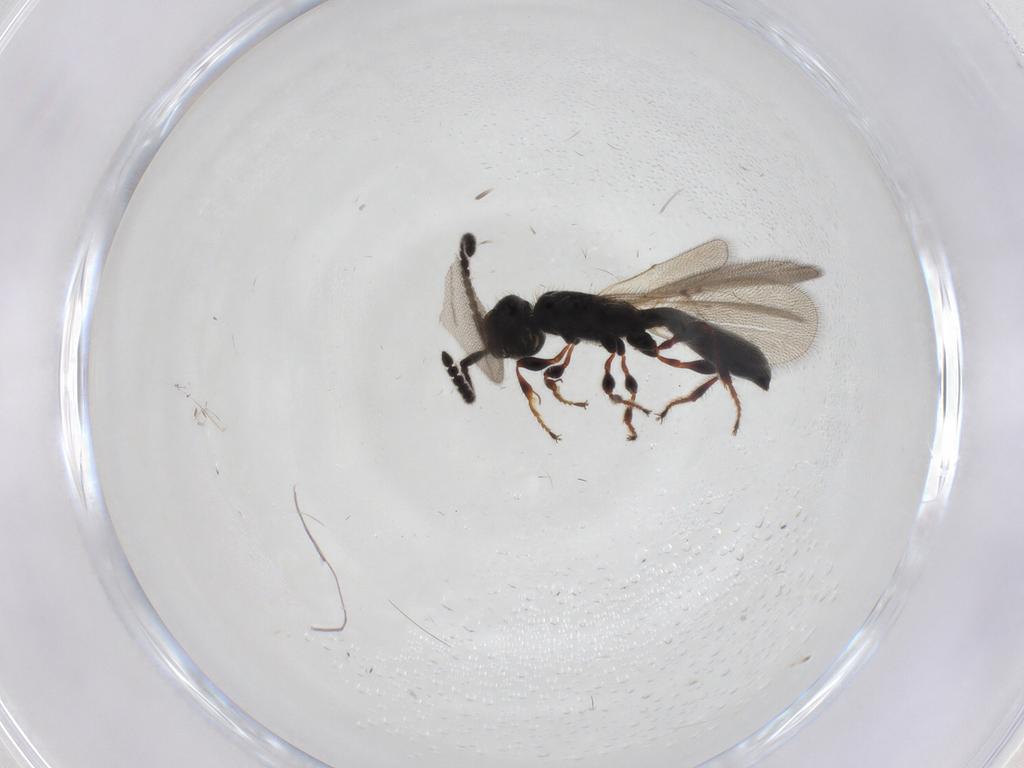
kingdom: Animalia
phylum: Arthropoda
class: Insecta
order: Hymenoptera
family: Diapriidae
